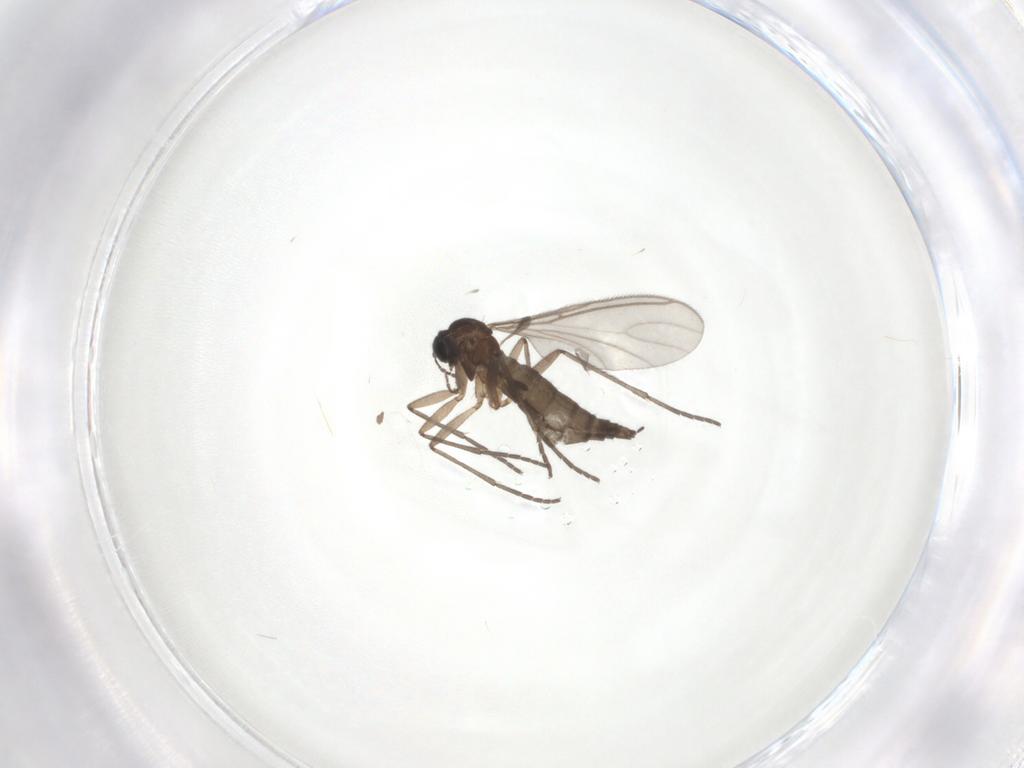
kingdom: Animalia
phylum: Arthropoda
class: Insecta
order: Diptera
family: Sciaridae
